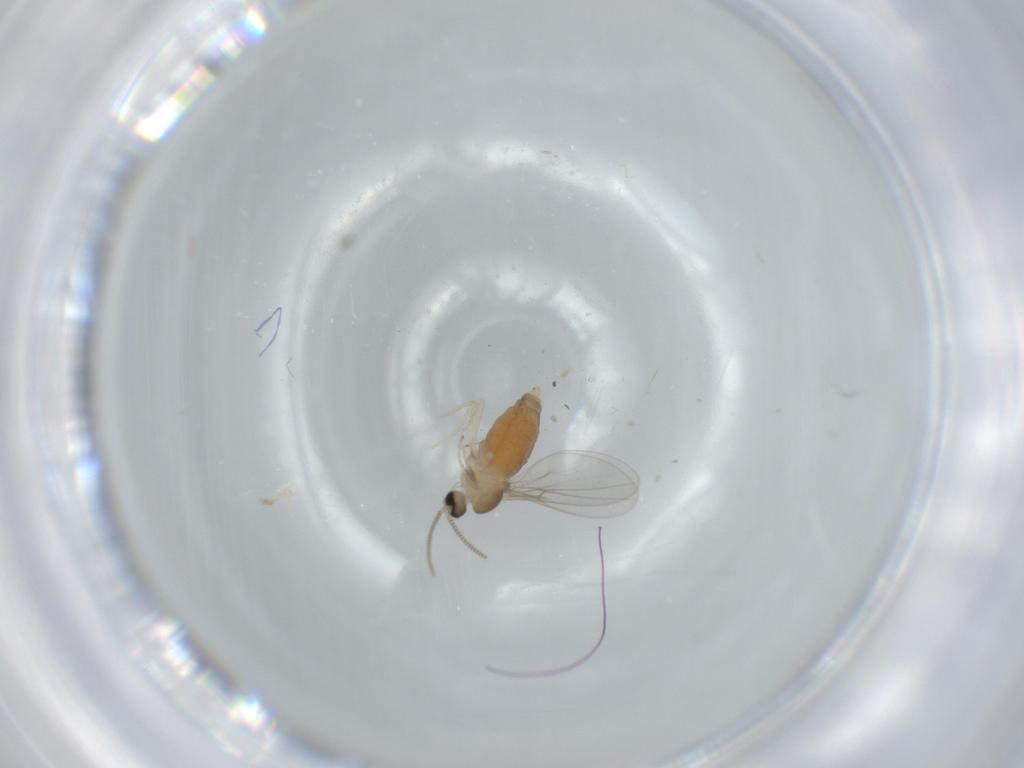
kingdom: Animalia
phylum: Arthropoda
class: Insecta
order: Diptera
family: Cecidomyiidae
